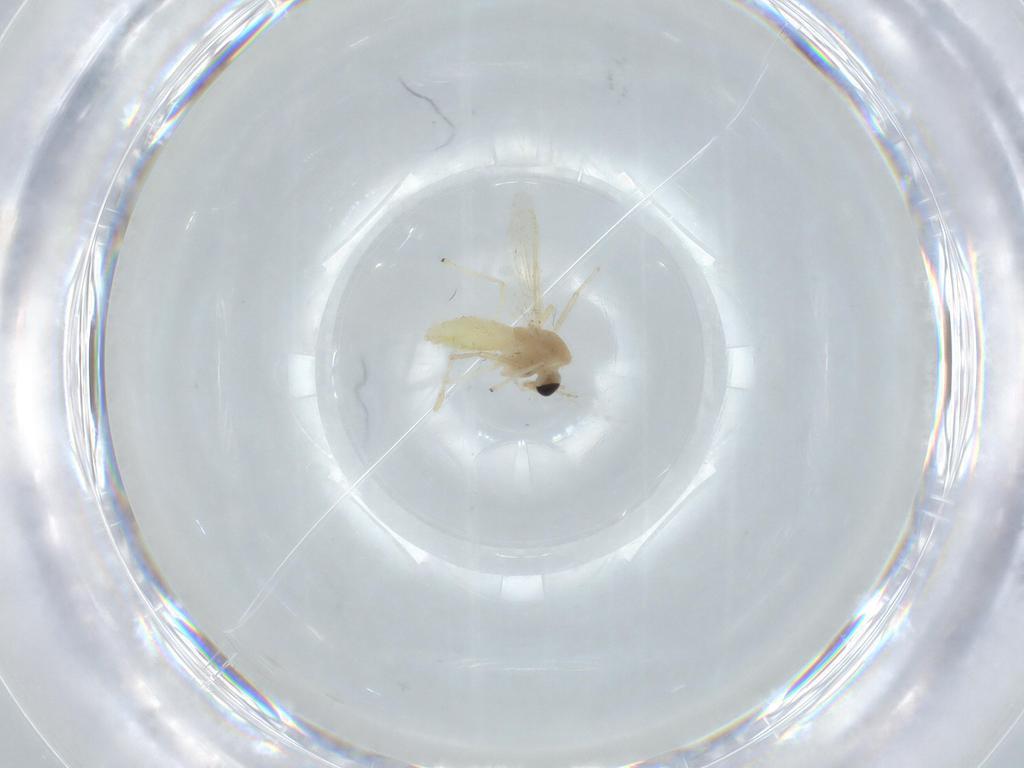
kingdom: Animalia
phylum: Arthropoda
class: Insecta
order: Diptera
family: Chironomidae
